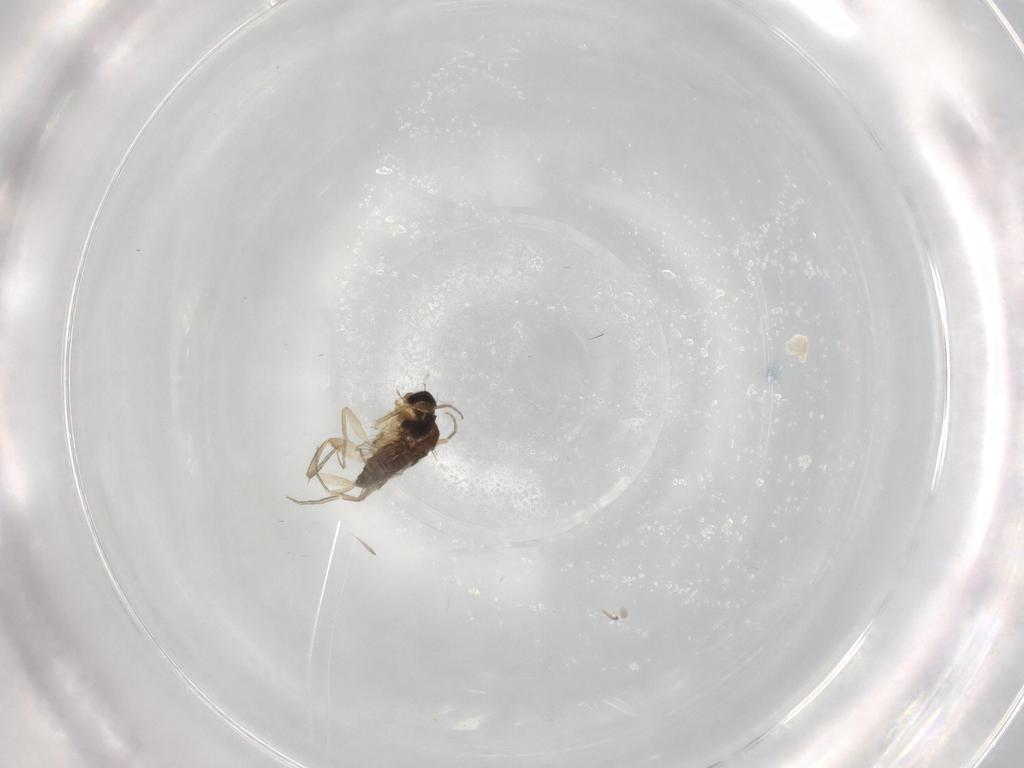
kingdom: Animalia
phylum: Arthropoda
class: Insecta
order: Diptera
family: Phoridae
